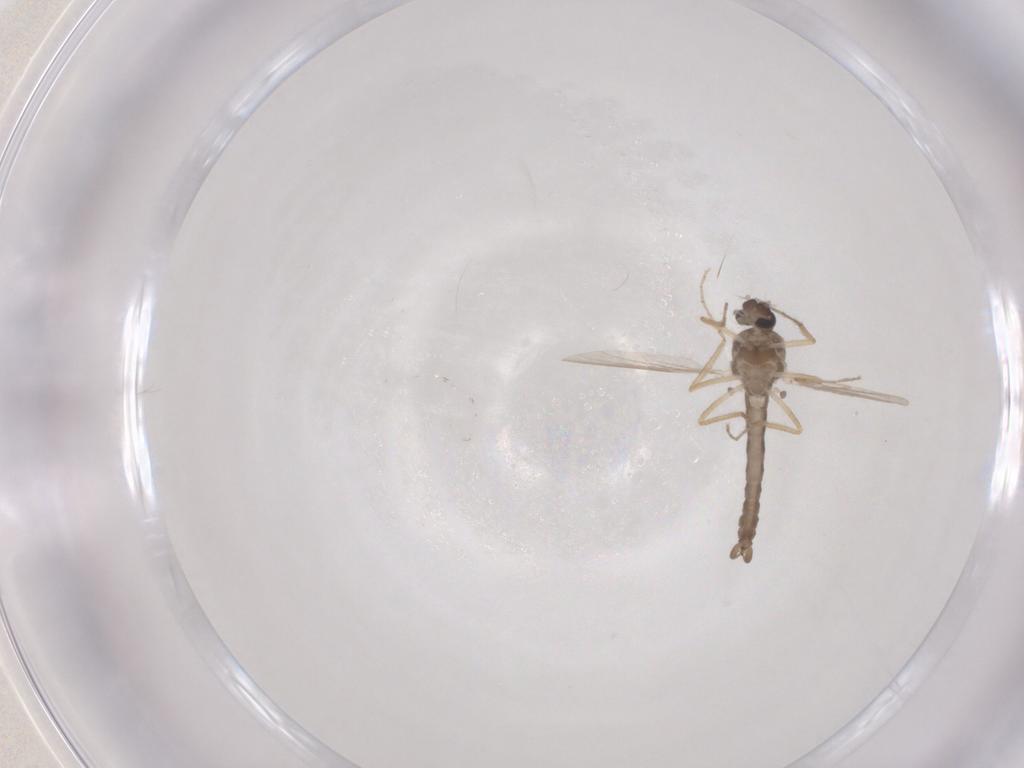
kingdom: Animalia
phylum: Arthropoda
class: Insecta
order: Diptera
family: Ceratopogonidae
